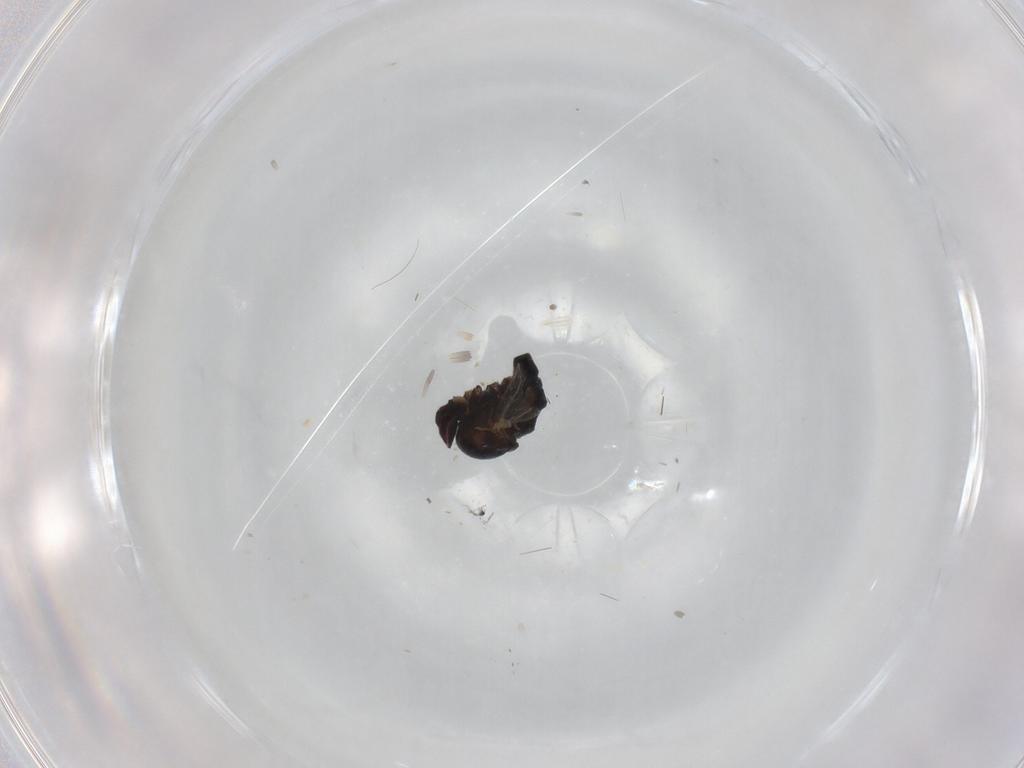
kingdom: Animalia
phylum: Arthropoda
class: Insecta
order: Diptera
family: Agromyzidae
